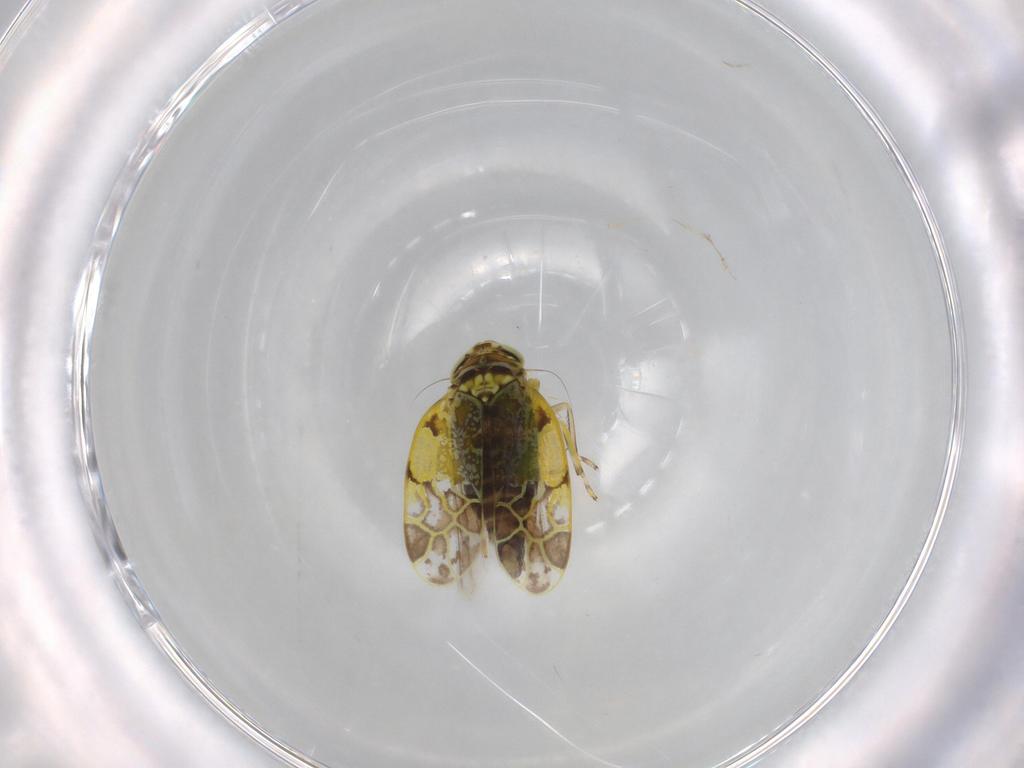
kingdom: Animalia
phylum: Arthropoda
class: Insecta
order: Hemiptera
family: Cicadellidae
